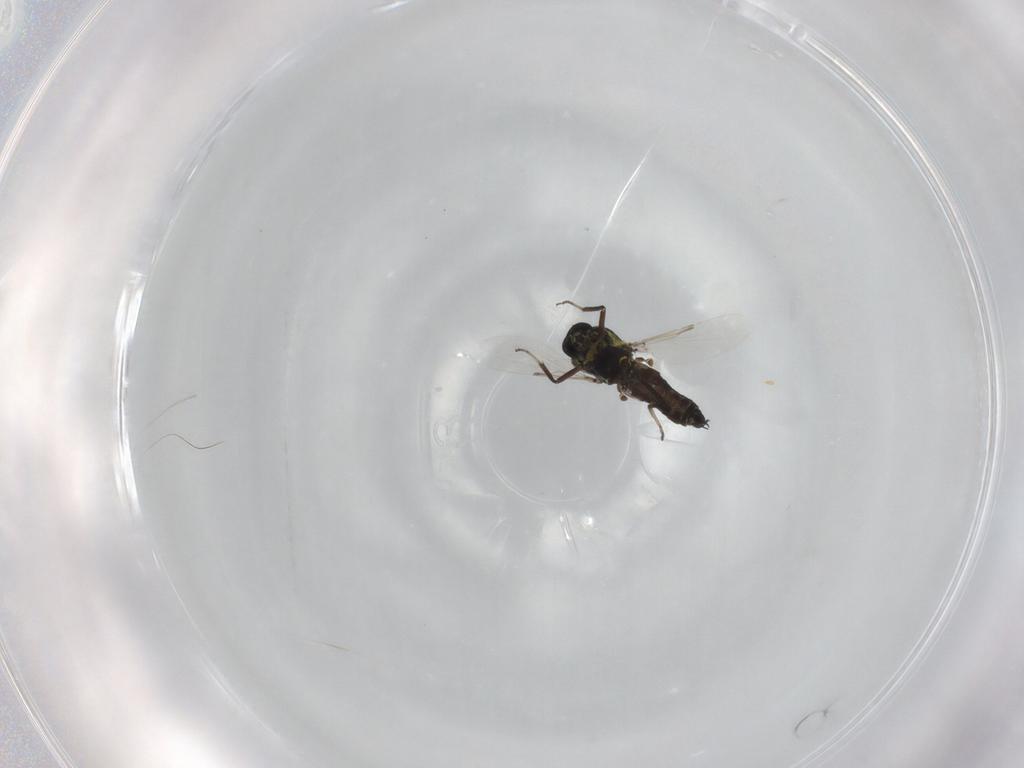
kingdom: Animalia
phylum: Arthropoda
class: Insecta
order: Diptera
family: Ceratopogonidae
